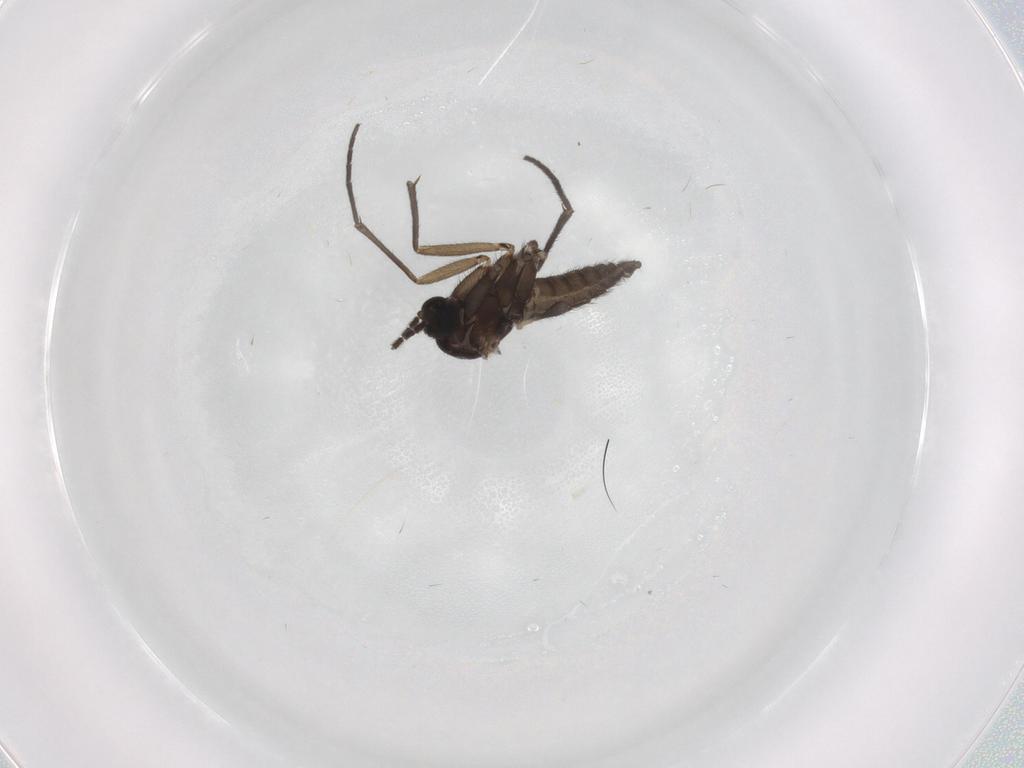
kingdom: Animalia
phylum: Arthropoda
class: Insecta
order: Diptera
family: Sciaridae
